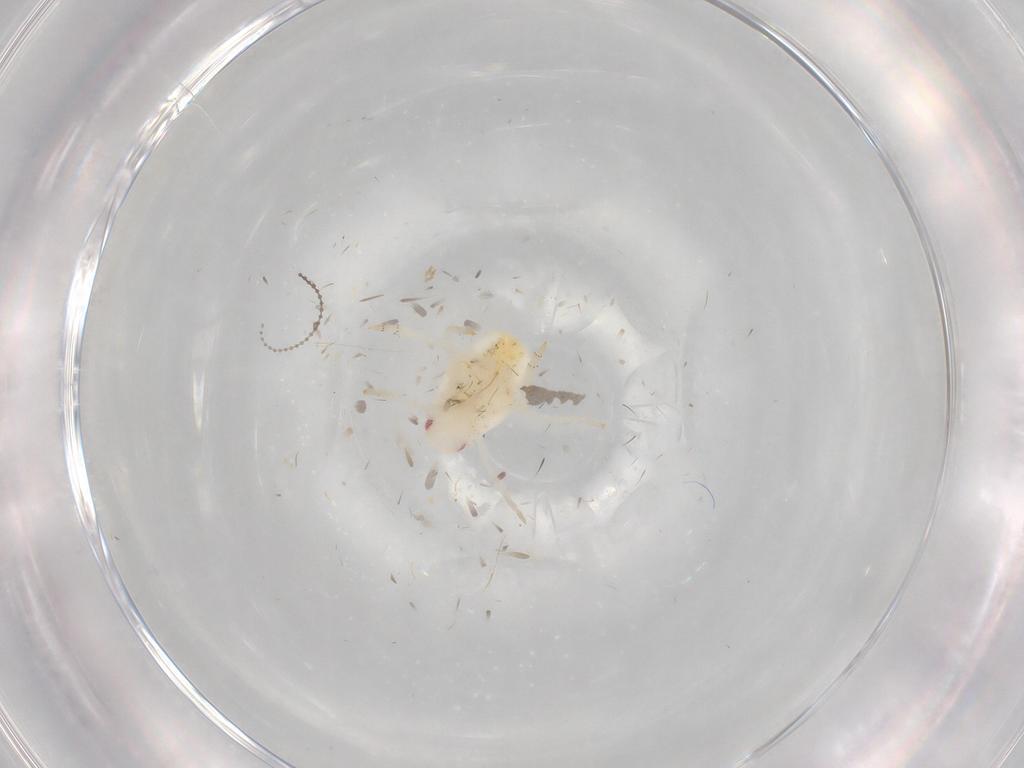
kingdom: Animalia
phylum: Arthropoda
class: Insecta
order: Hemiptera
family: Flatidae
